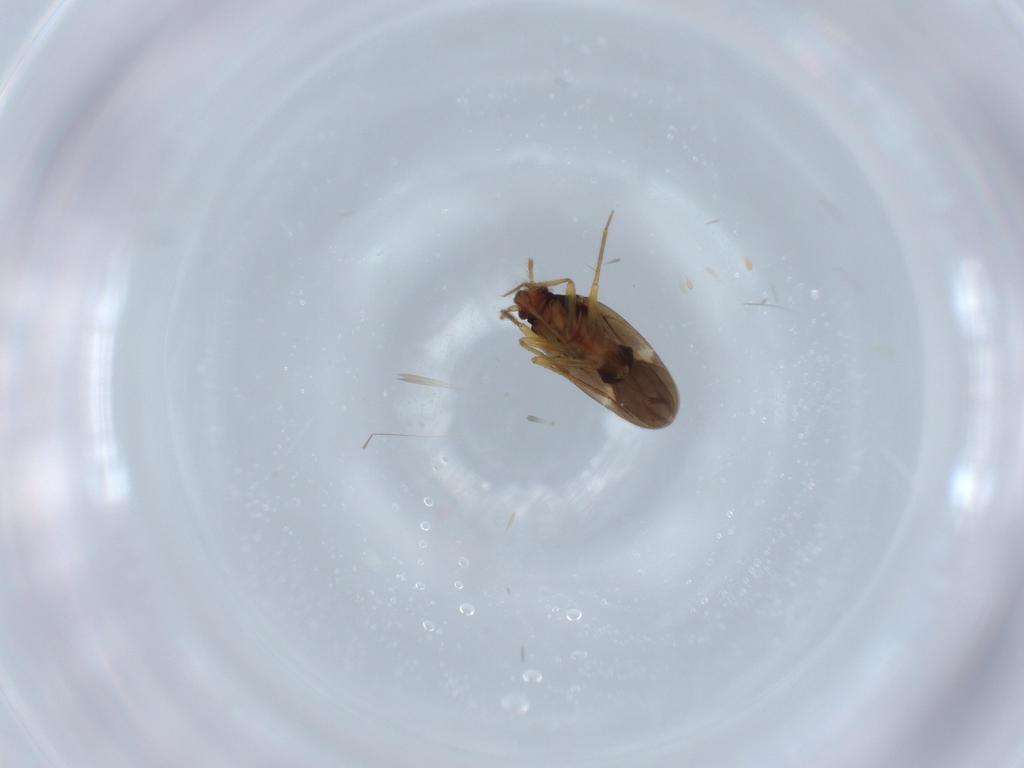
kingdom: Animalia
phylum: Arthropoda
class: Insecta
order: Hemiptera
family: Ceratocombidae
